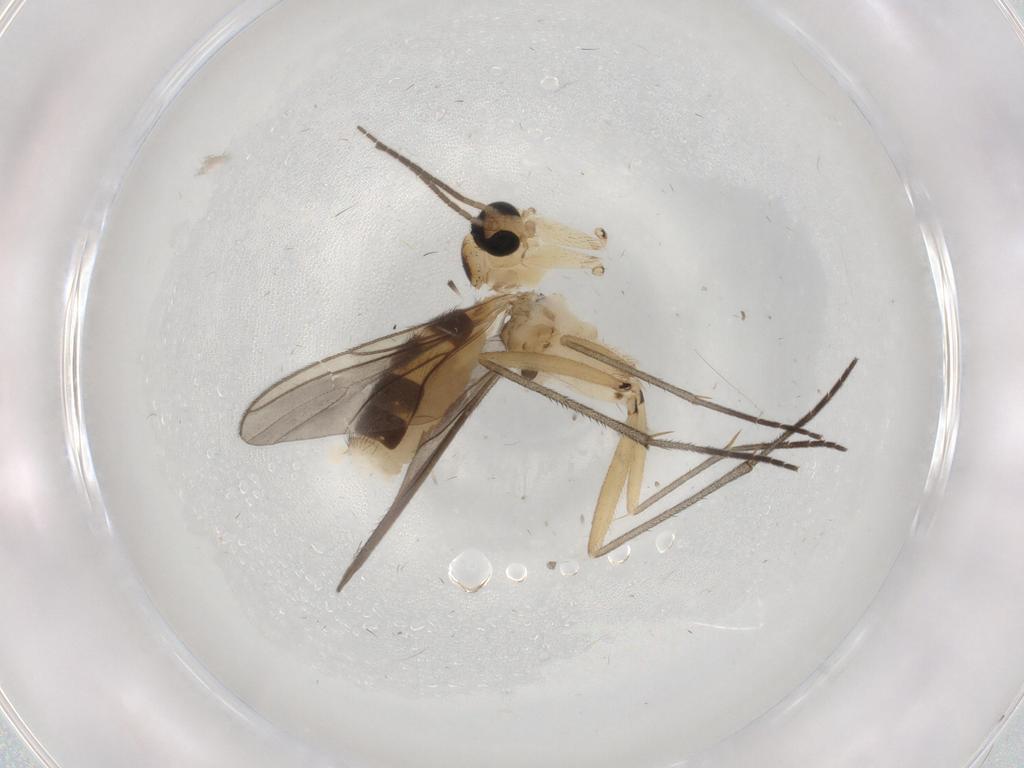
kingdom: Animalia
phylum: Arthropoda
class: Insecta
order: Diptera
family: Sciaridae
